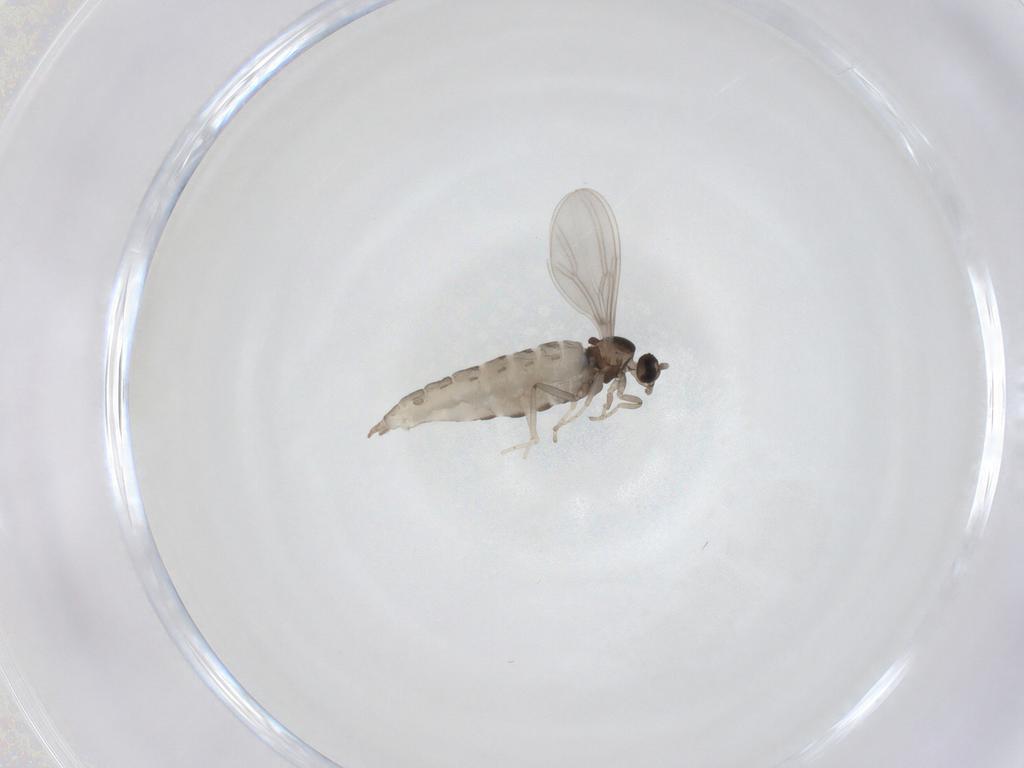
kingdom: Animalia
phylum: Arthropoda
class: Insecta
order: Diptera
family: Cecidomyiidae
